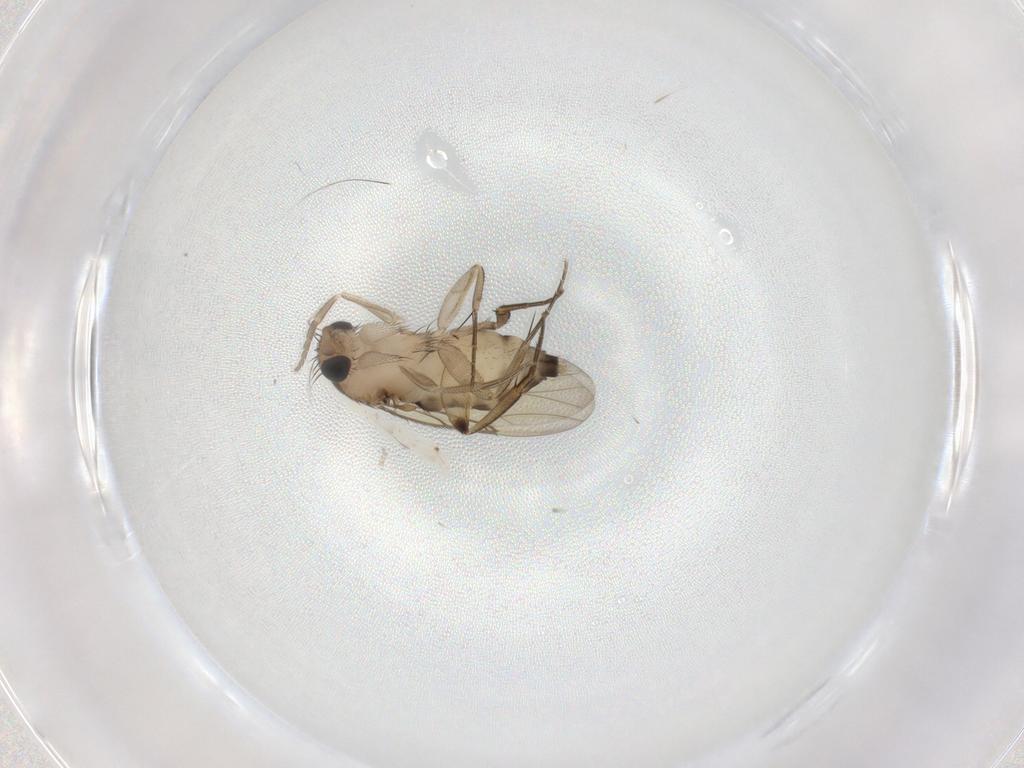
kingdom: Animalia
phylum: Arthropoda
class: Insecta
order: Diptera
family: Phoridae
